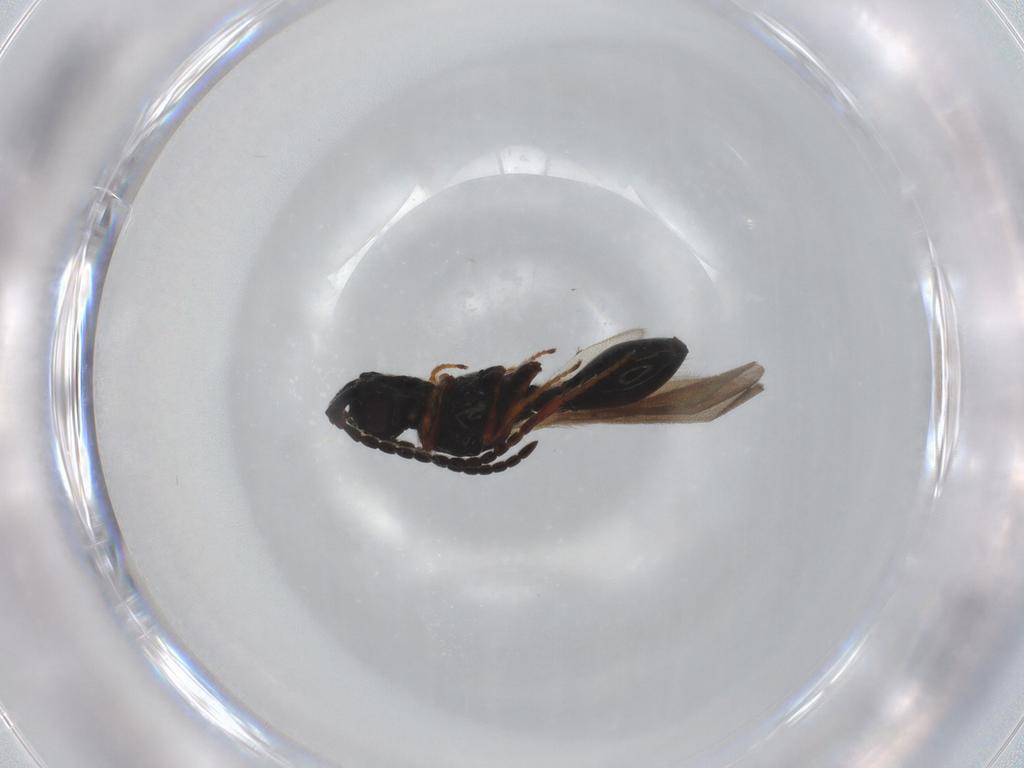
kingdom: Animalia
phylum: Arthropoda
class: Insecta
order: Hymenoptera
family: Diapriidae
